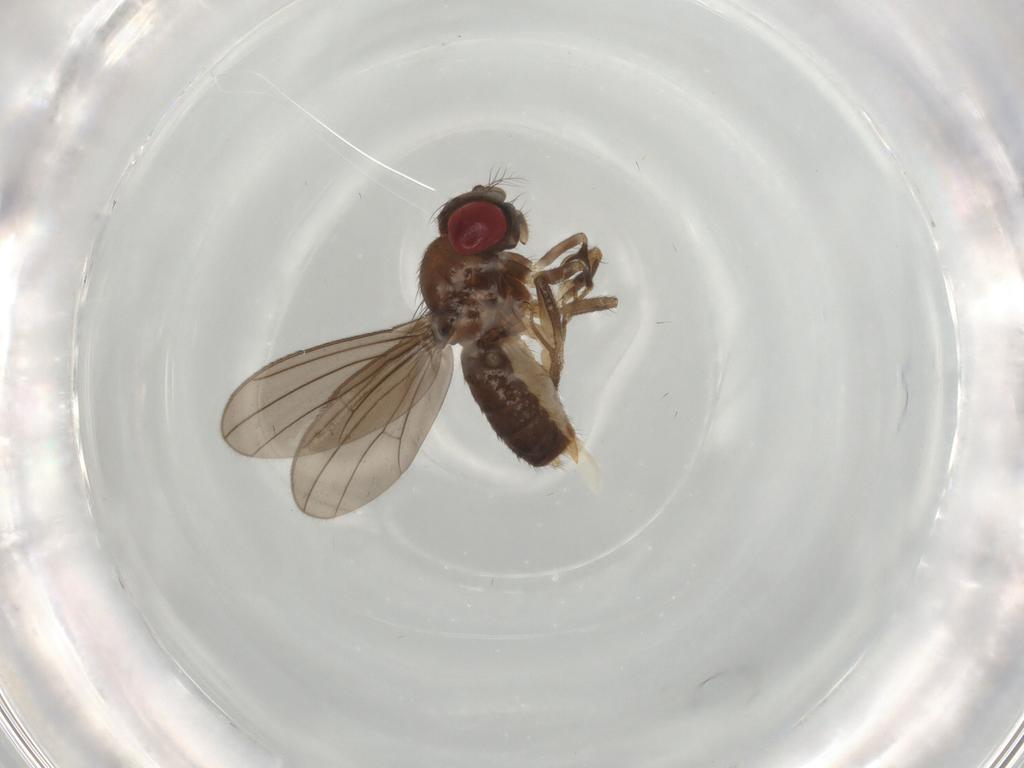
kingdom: Animalia
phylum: Arthropoda
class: Insecta
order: Diptera
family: Drosophilidae
